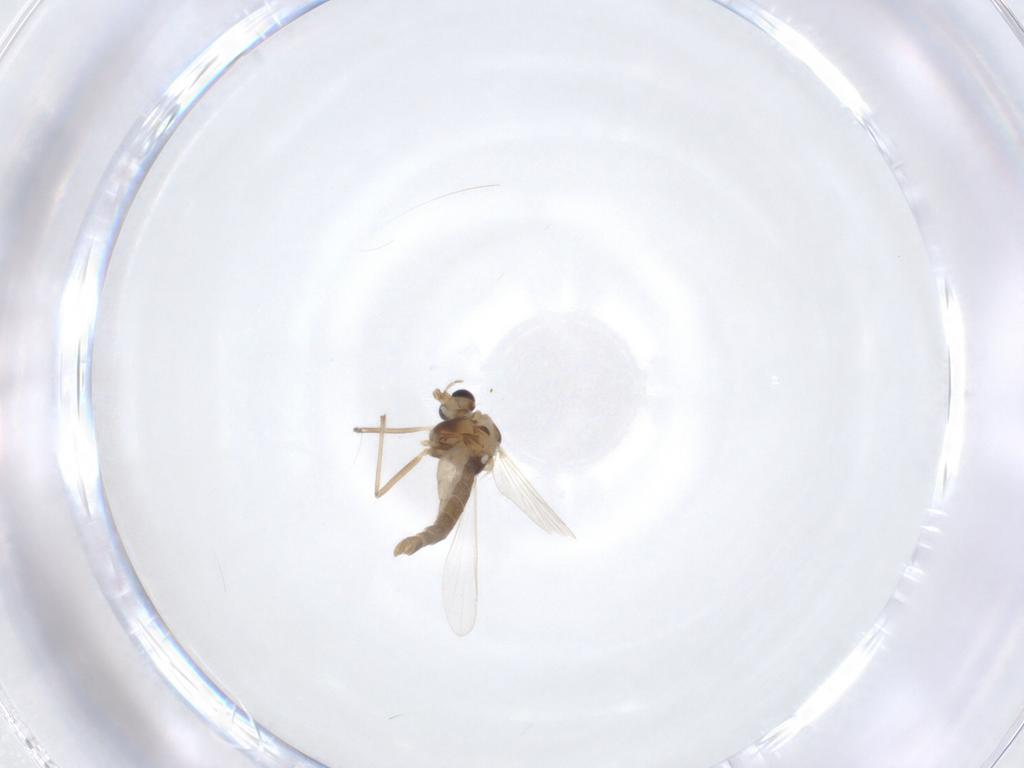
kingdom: Animalia
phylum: Arthropoda
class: Insecta
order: Diptera
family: Chironomidae
